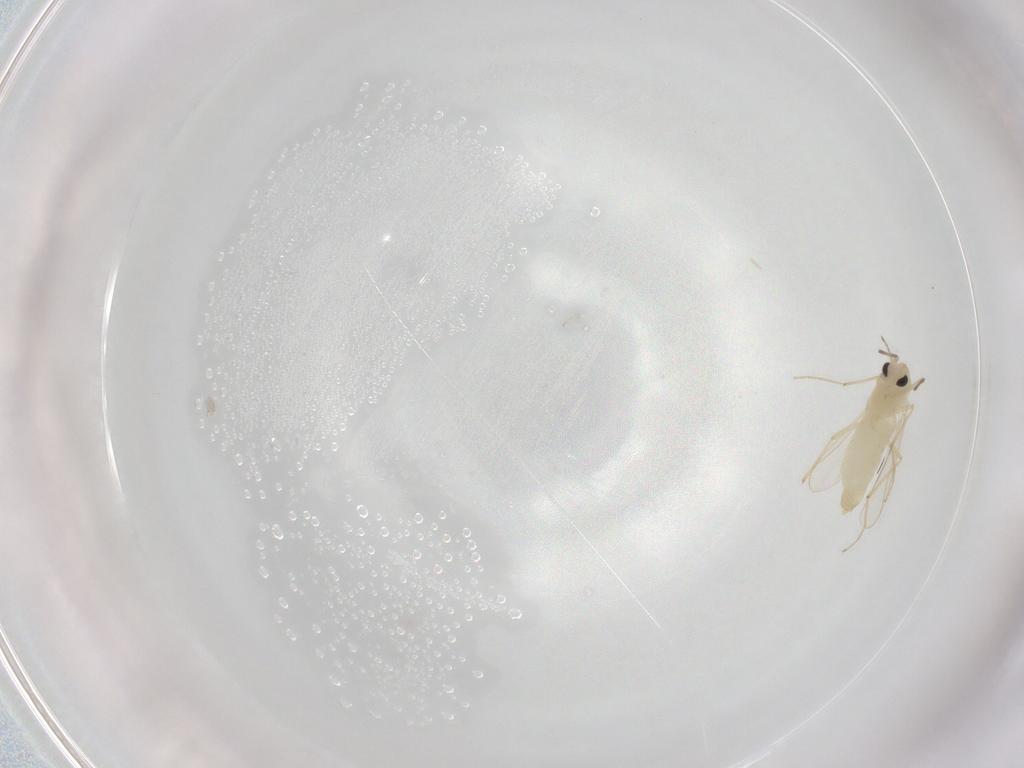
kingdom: Animalia
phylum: Arthropoda
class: Insecta
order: Diptera
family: Chironomidae
